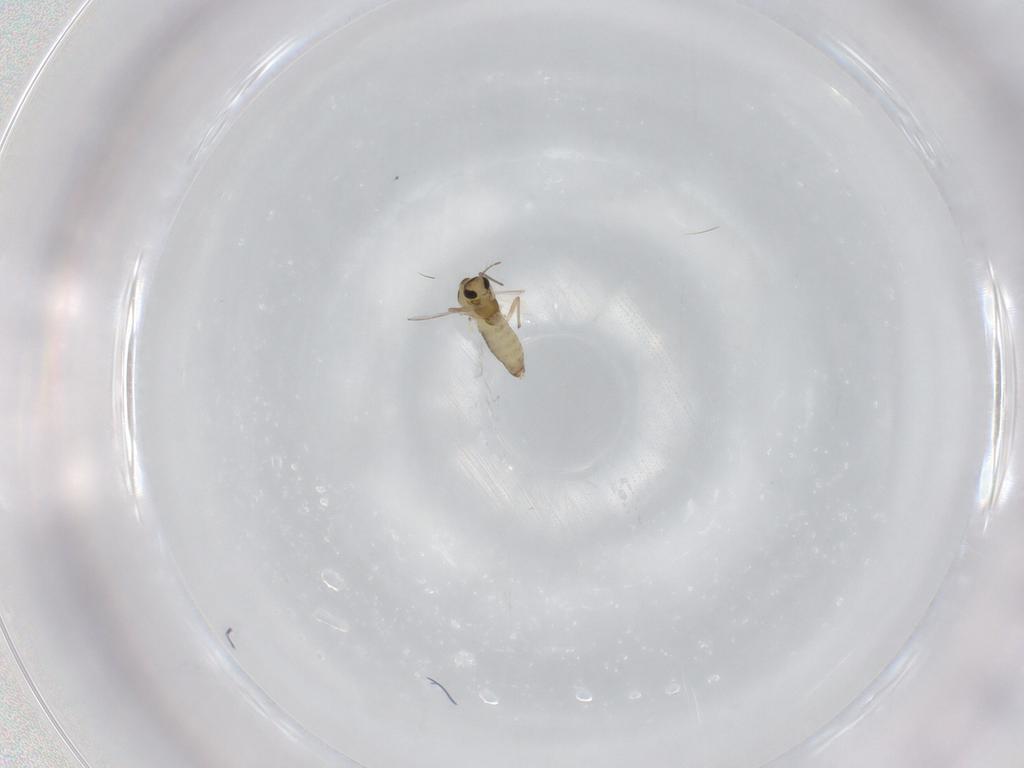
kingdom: Animalia
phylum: Arthropoda
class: Insecta
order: Diptera
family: Chironomidae
